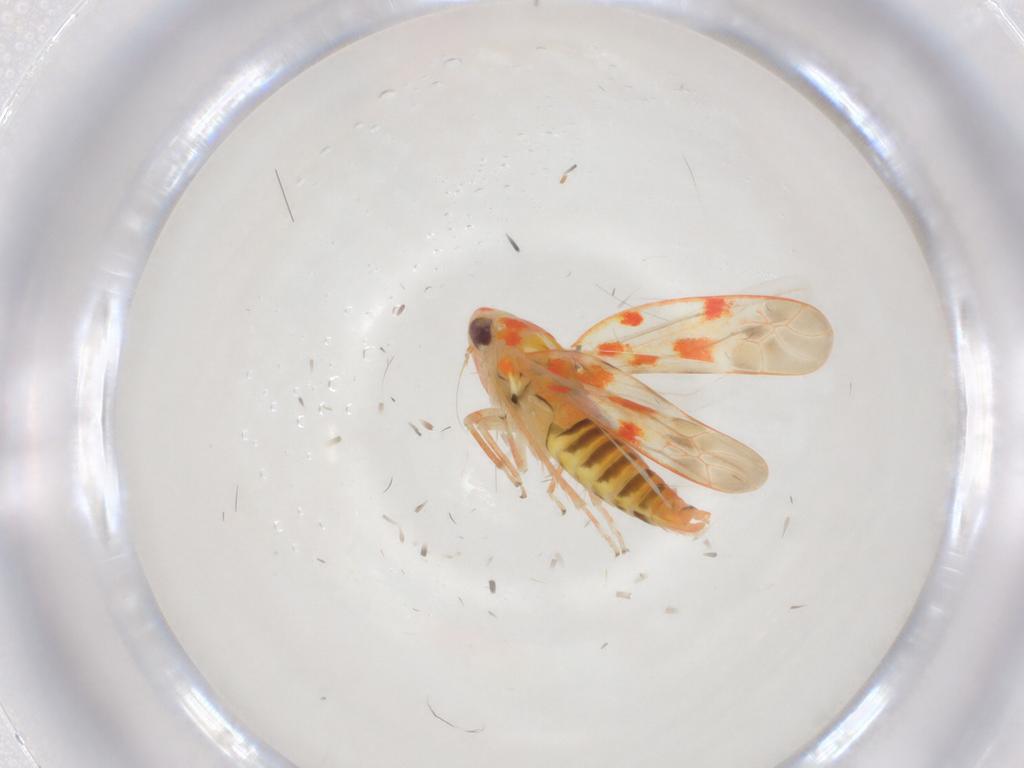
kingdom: Animalia
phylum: Arthropoda
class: Insecta
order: Hemiptera
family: Cicadellidae
